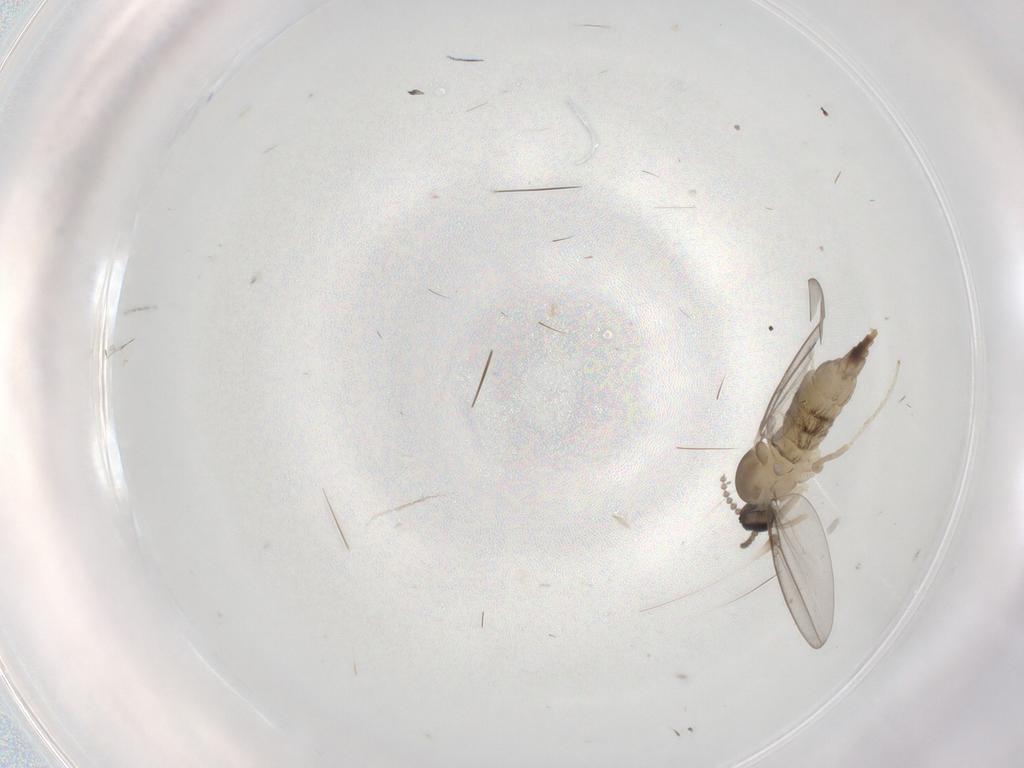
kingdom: Animalia
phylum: Arthropoda
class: Insecta
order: Diptera
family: Cecidomyiidae
